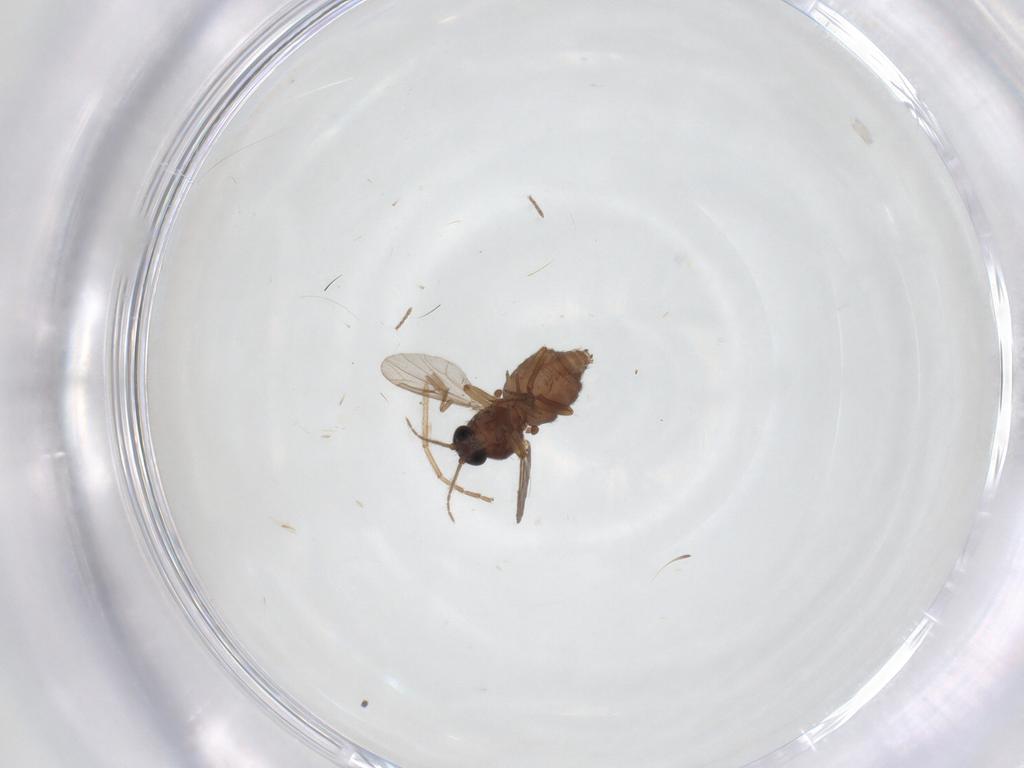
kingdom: Animalia
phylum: Arthropoda
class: Insecta
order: Diptera
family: Ceratopogonidae
